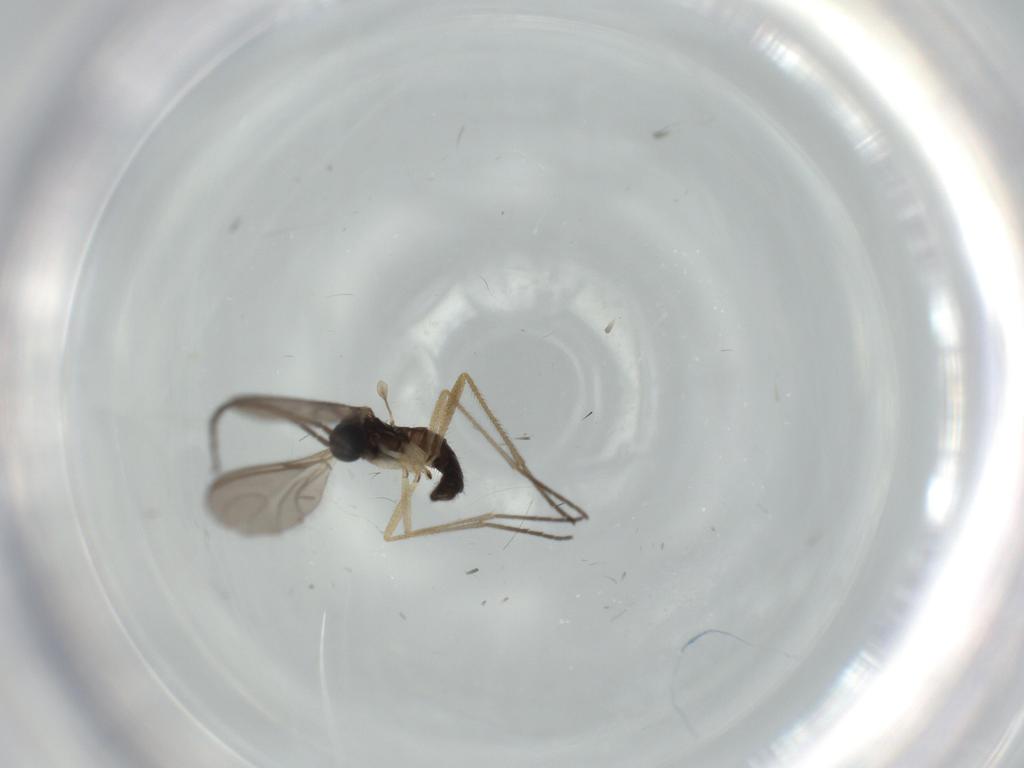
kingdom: Animalia
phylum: Arthropoda
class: Insecta
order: Diptera
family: Sciaridae
